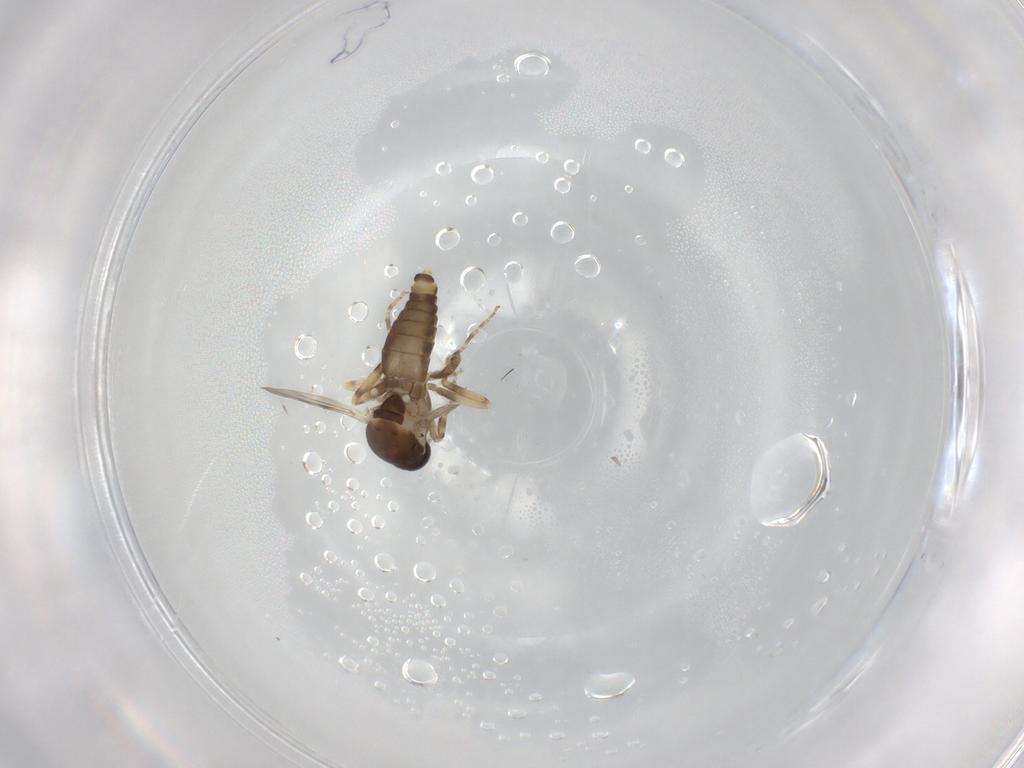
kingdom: Animalia
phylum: Arthropoda
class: Insecta
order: Diptera
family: Ceratopogonidae
